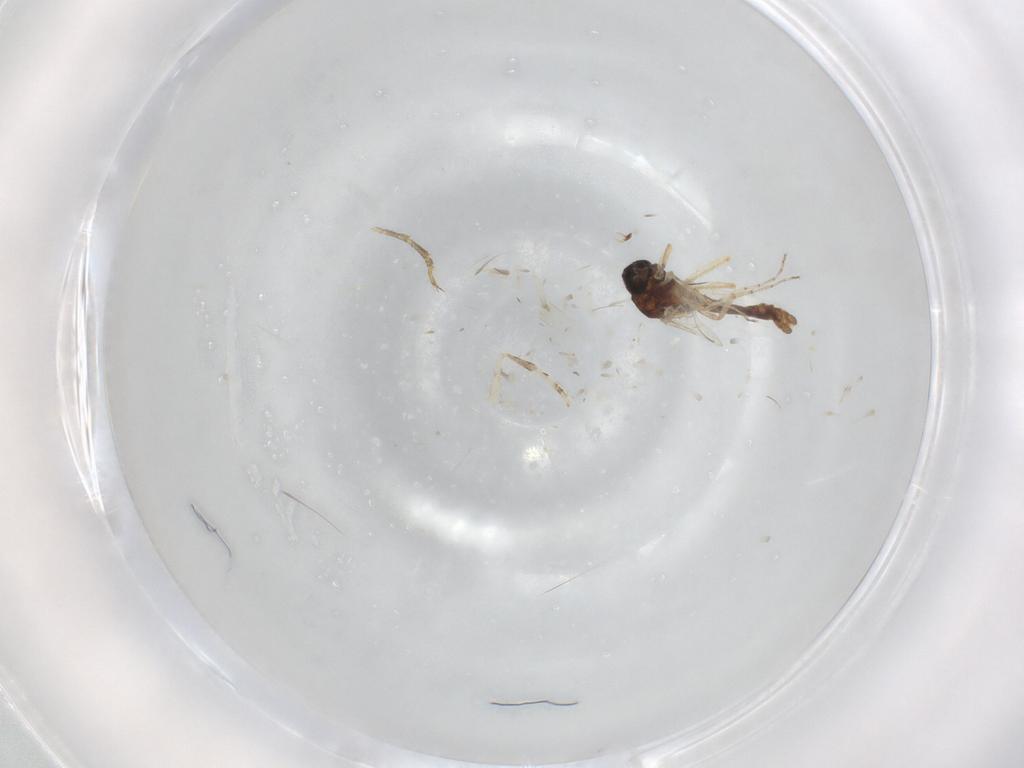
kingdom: Animalia
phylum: Arthropoda
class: Insecta
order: Diptera
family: Ceratopogonidae
